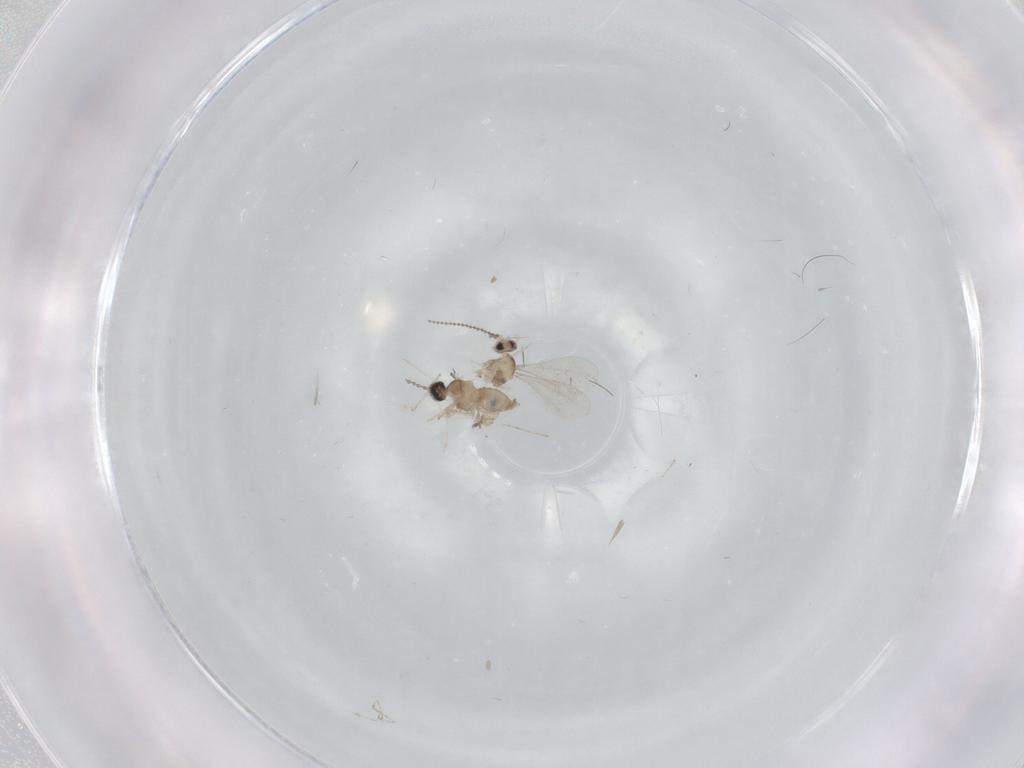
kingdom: Animalia
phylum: Arthropoda
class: Insecta
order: Diptera
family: Cecidomyiidae
